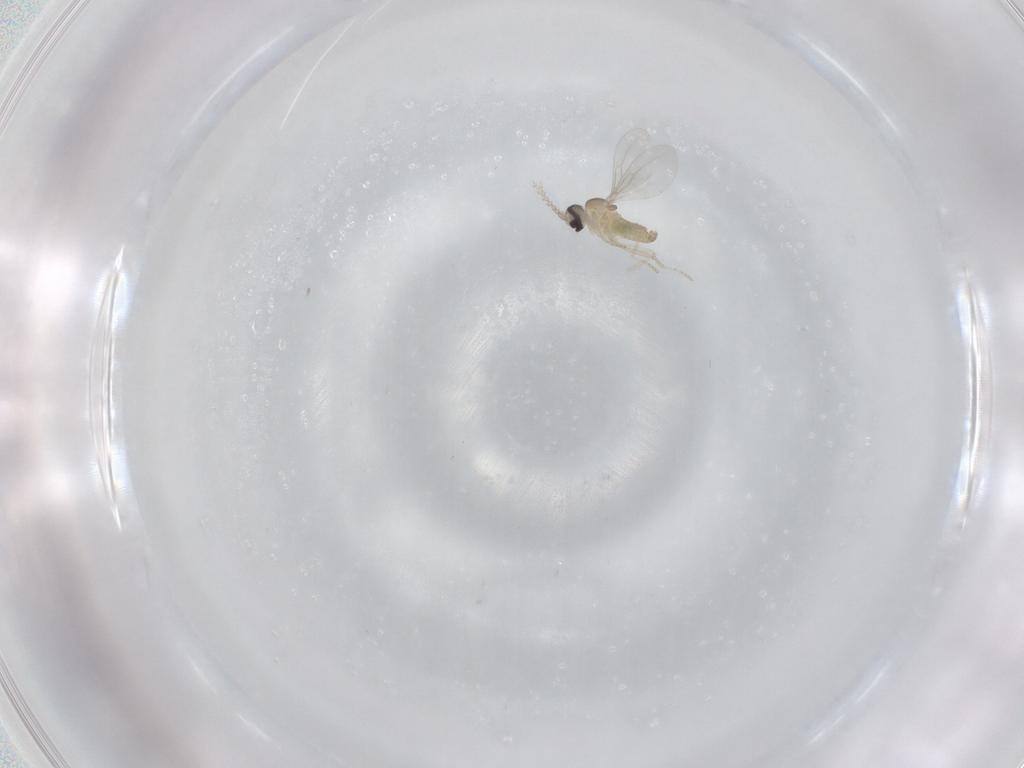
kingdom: Animalia
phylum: Arthropoda
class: Insecta
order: Diptera
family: Cecidomyiidae
